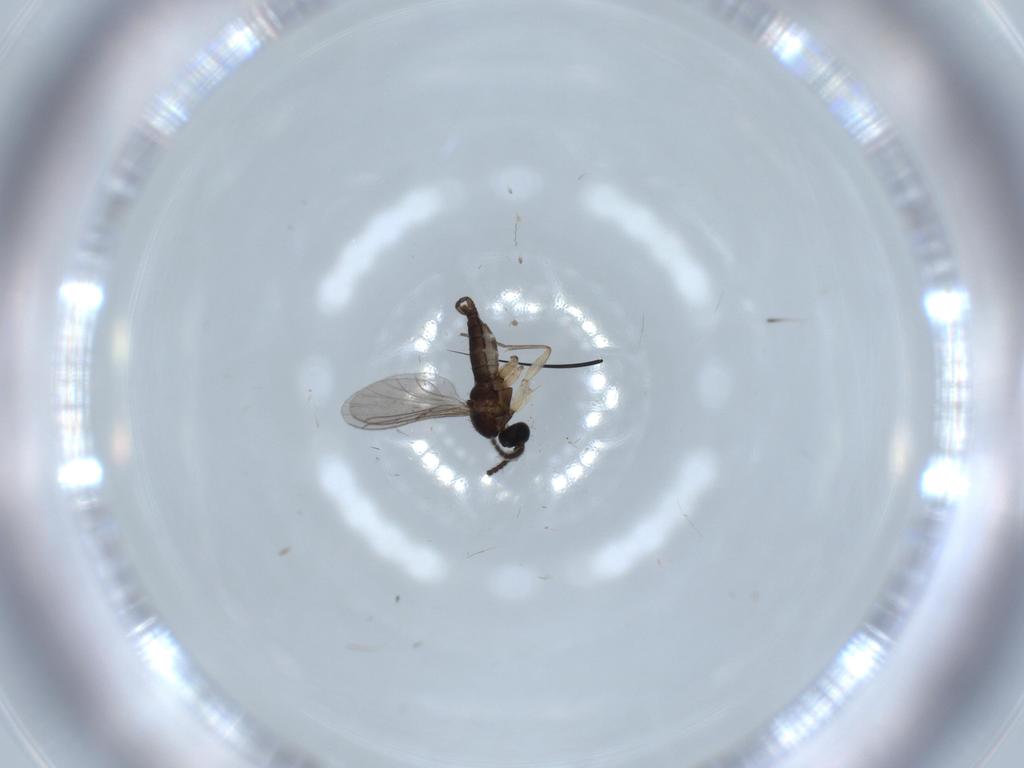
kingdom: Animalia
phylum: Arthropoda
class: Insecta
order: Diptera
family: Sciaridae
